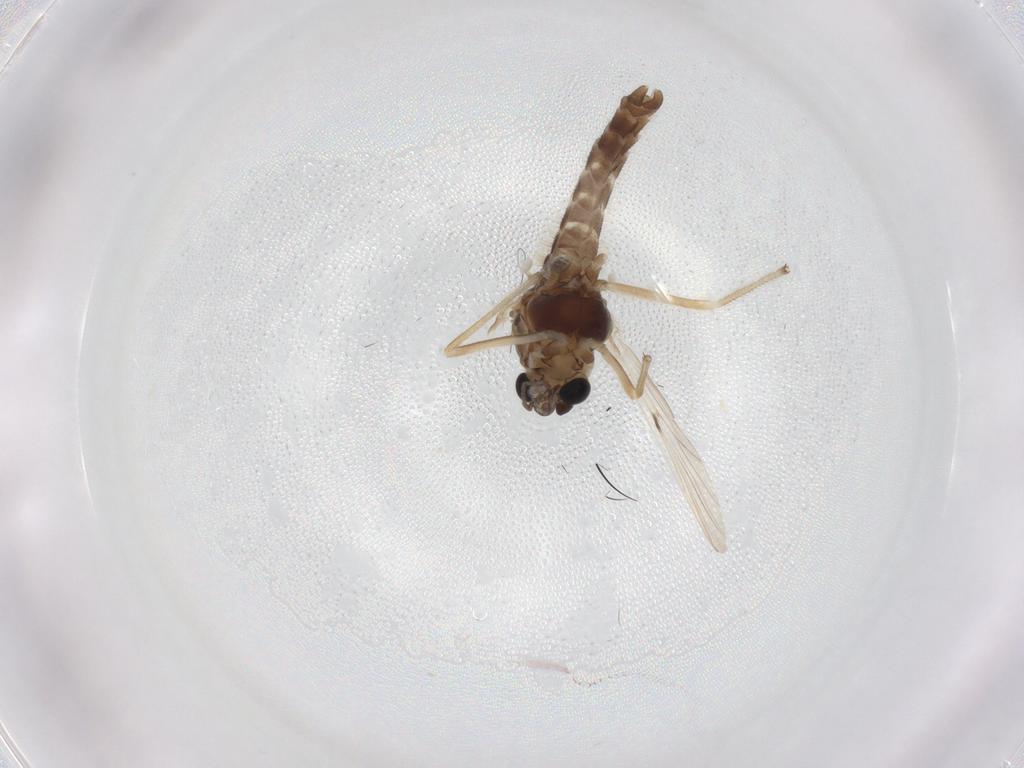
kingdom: Animalia
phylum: Arthropoda
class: Insecta
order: Diptera
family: Chironomidae
